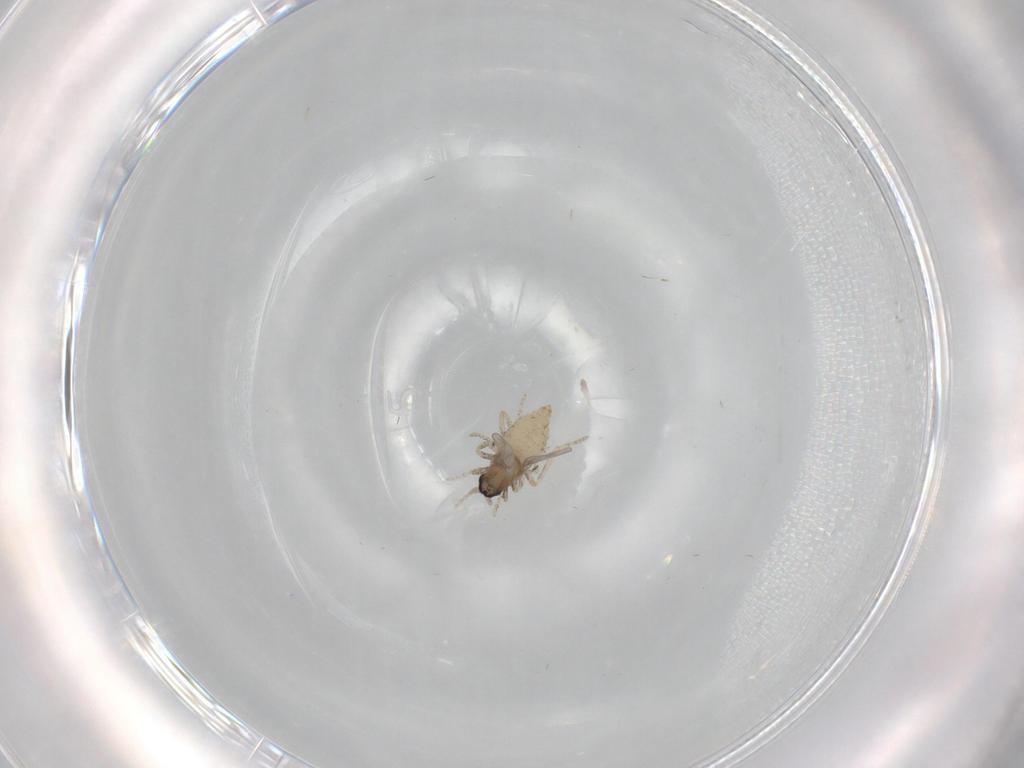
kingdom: Animalia
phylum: Arthropoda
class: Insecta
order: Diptera
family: Cecidomyiidae
